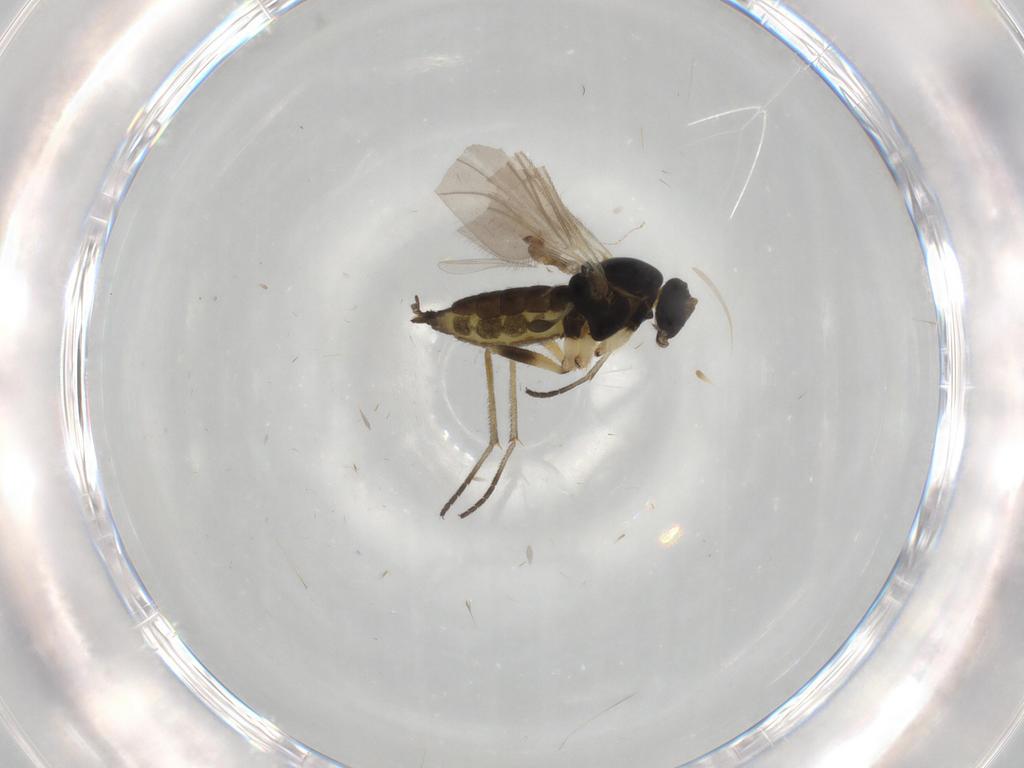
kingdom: Animalia
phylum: Arthropoda
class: Insecta
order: Diptera
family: Sciaridae
